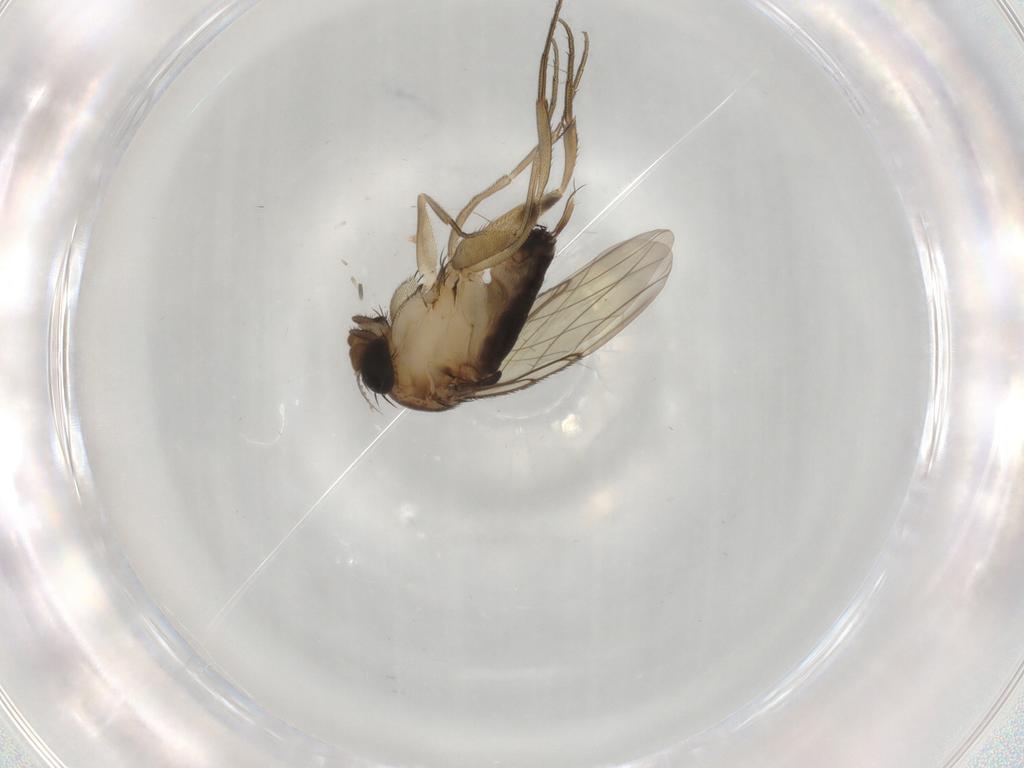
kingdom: Animalia
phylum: Arthropoda
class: Insecta
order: Diptera
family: Phoridae
